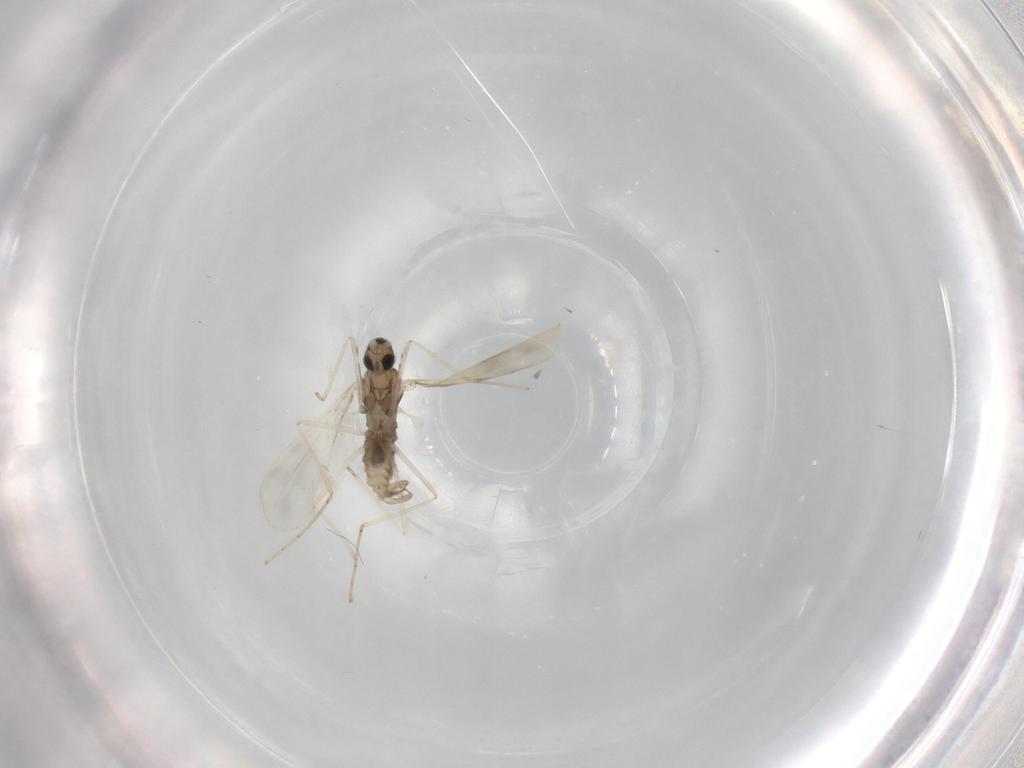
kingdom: Animalia
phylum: Arthropoda
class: Insecta
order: Diptera
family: Cecidomyiidae
